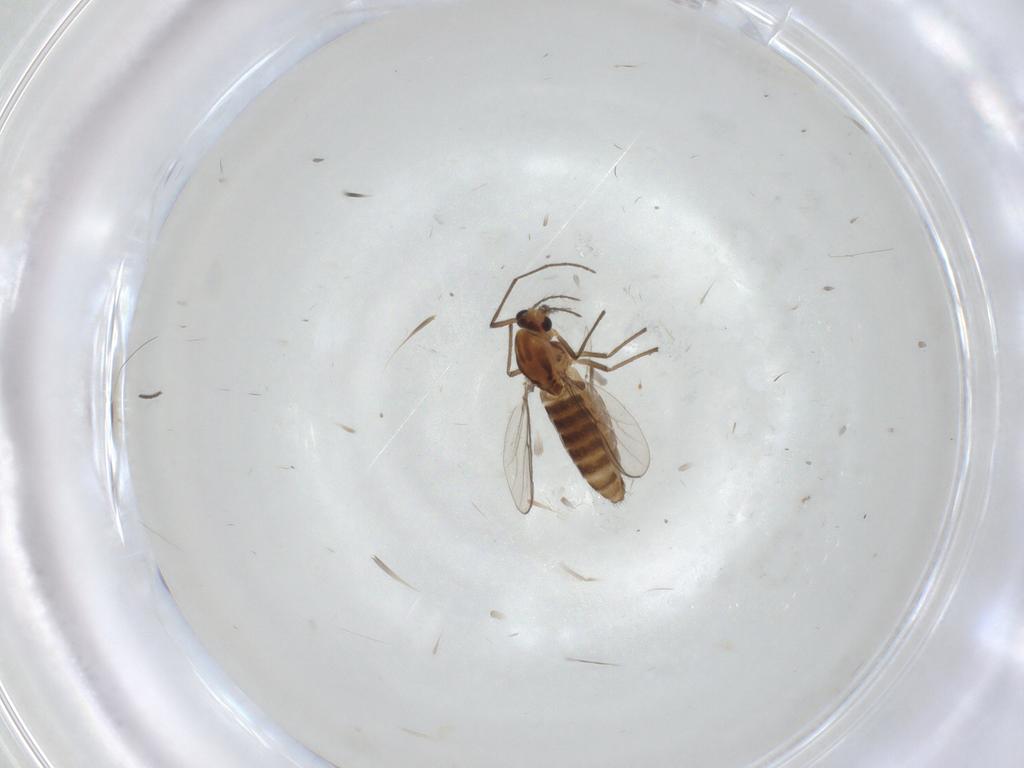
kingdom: Animalia
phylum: Arthropoda
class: Insecta
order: Diptera
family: Chironomidae
